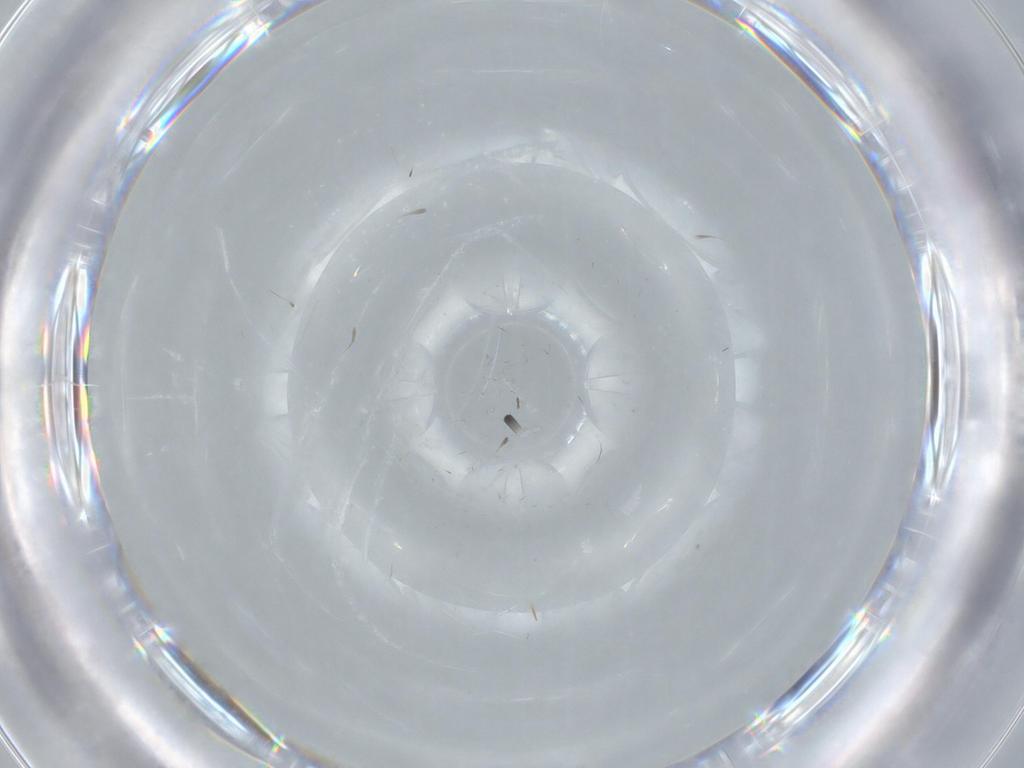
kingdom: Animalia
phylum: Arthropoda
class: Insecta
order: Diptera
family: Cecidomyiidae
